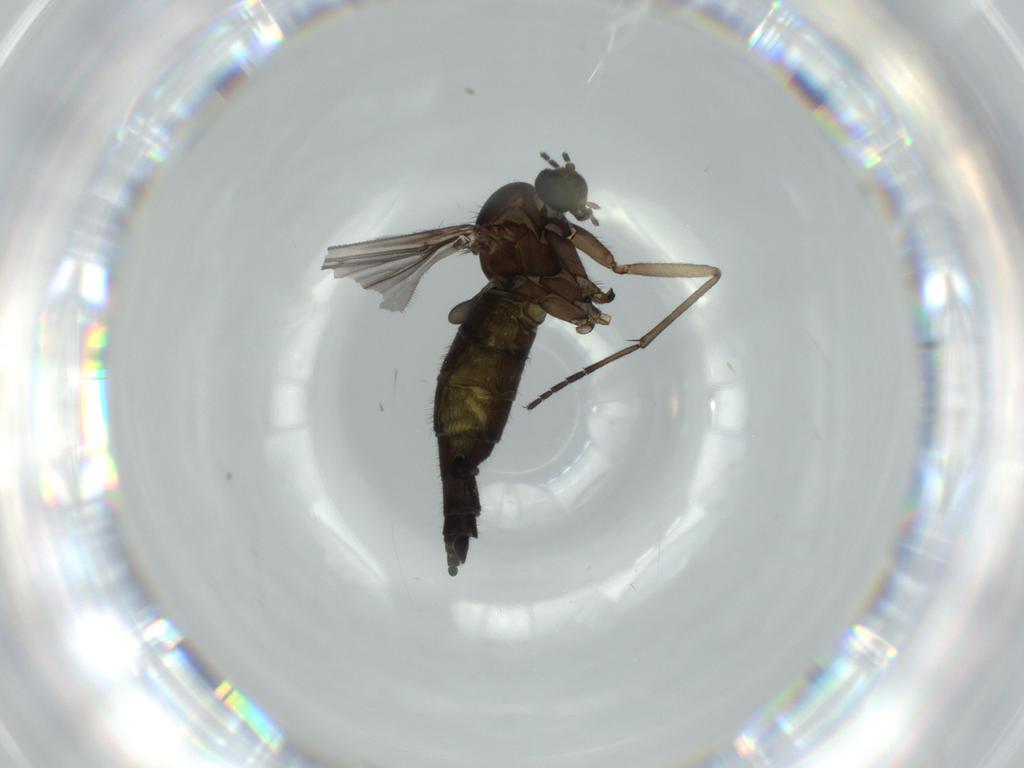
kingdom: Animalia
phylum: Arthropoda
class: Insecta
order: Diptera
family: Sciaridae
